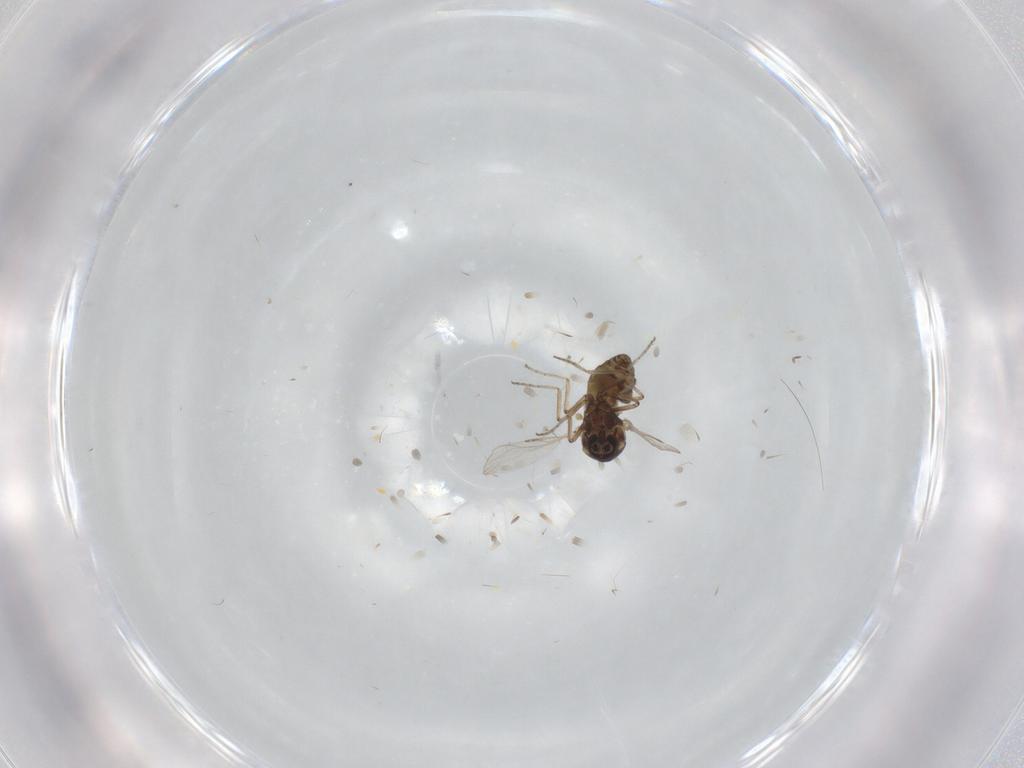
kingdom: Animalia
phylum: Arthropoda
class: Insecta
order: Diptera
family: Ceratopogonidae
